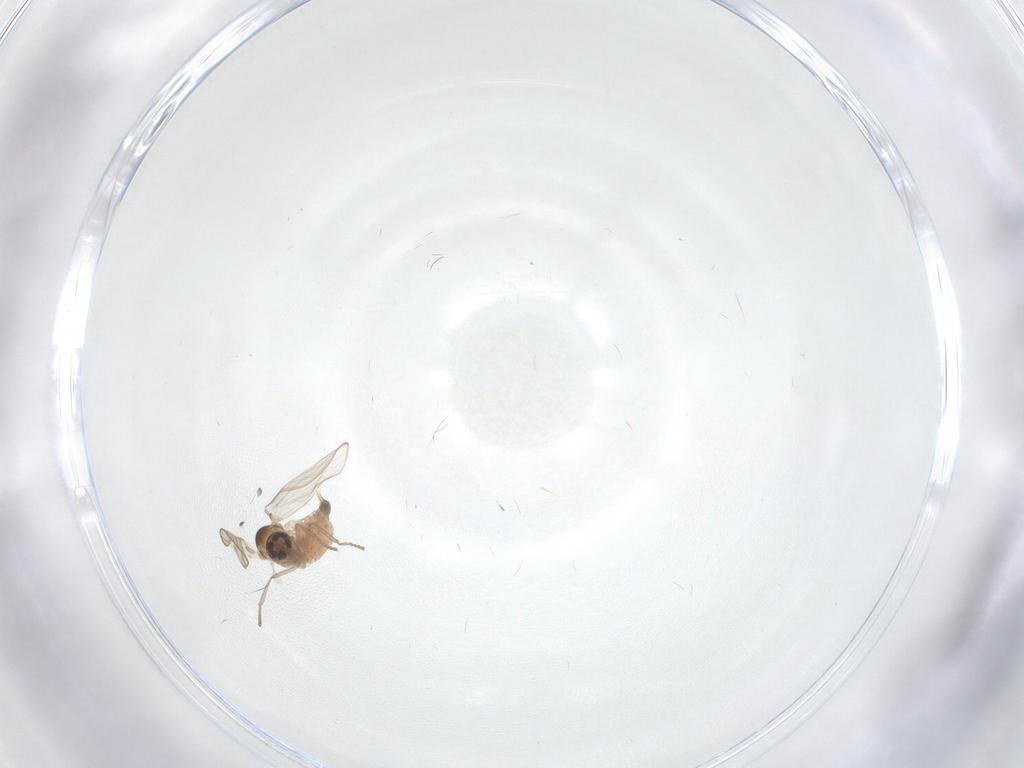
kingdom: Animalia
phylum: Arthropoda
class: Insecta
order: Diptera
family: Psychodidae
